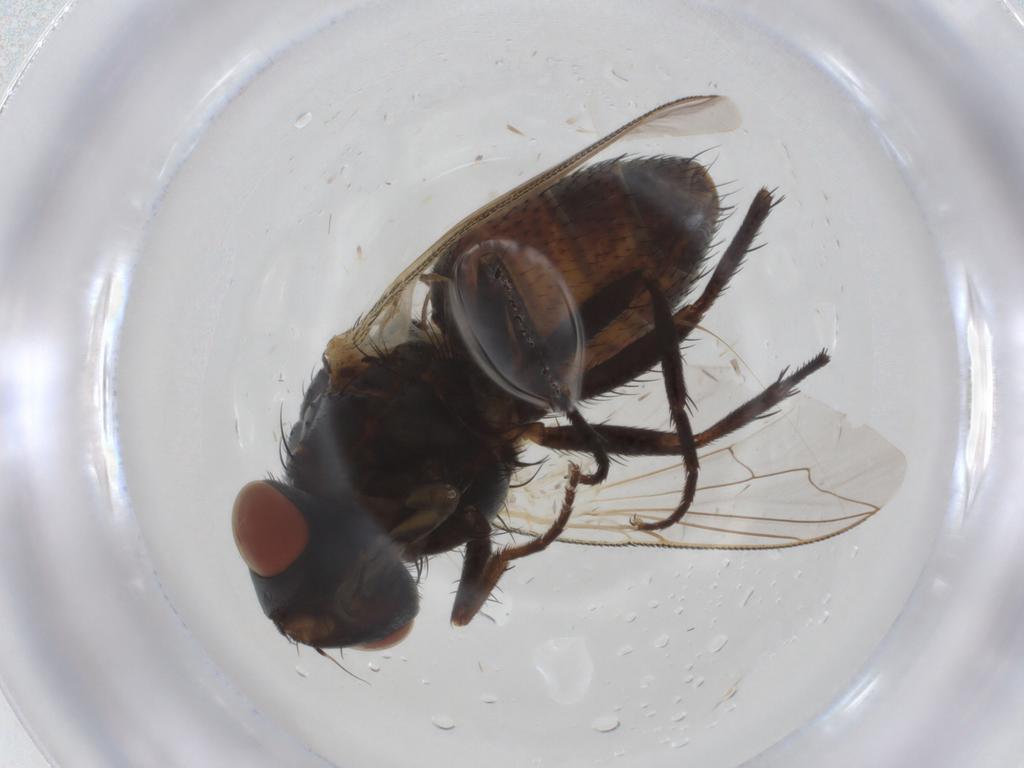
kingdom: Animalia
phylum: Arthropoda
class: Insecta
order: Diptera
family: Sarcophagidae
